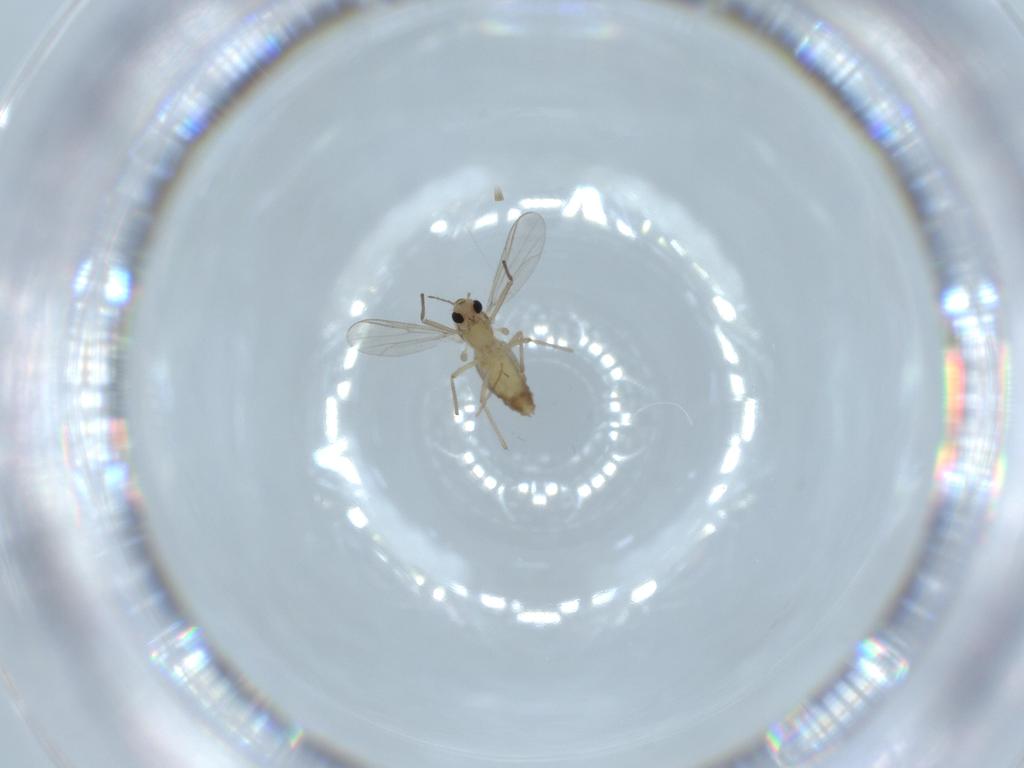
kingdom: Animalia
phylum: Arthropoda
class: Insecta
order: Diptera
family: Chironomidae
